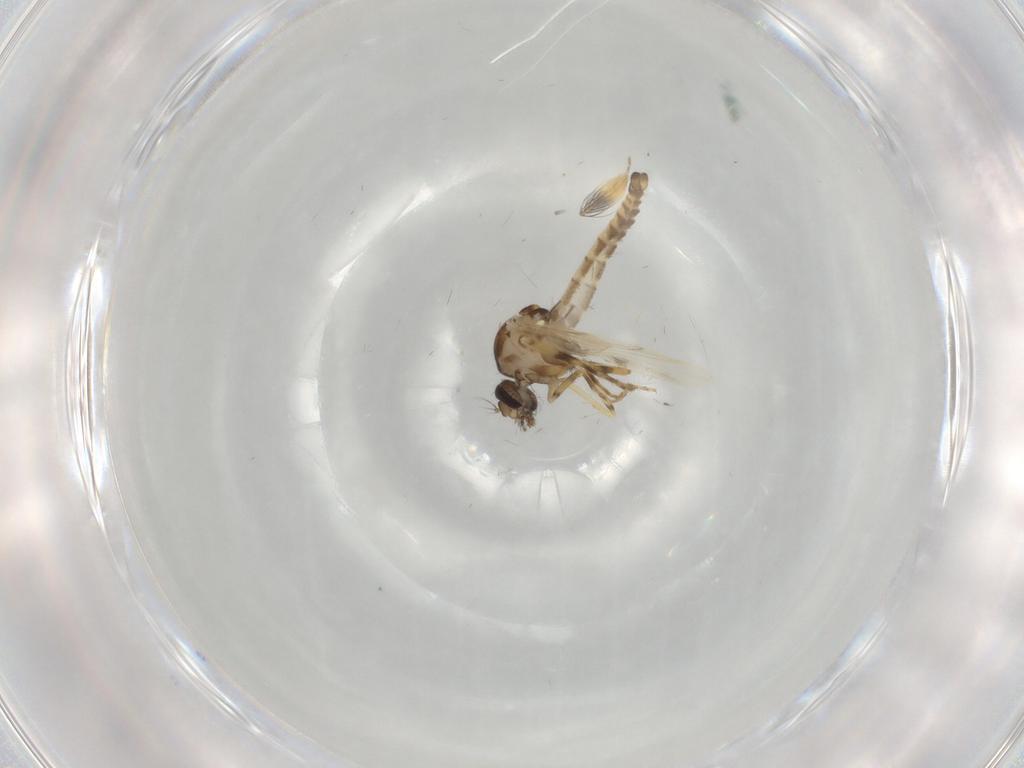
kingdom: Animalia
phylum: Arthropoda
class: Insecta
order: Diptera
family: Ceratopogonidae
